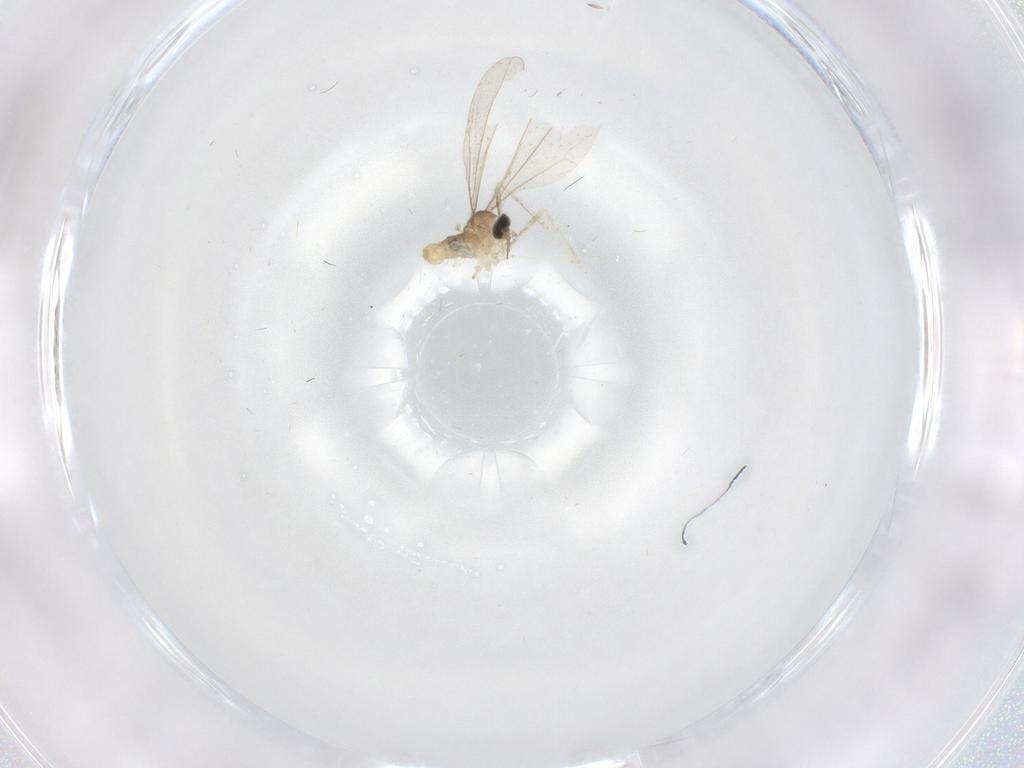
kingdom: Animalia
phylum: Arthropoda
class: Insecta
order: Diptera
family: Cecidomyiidae
